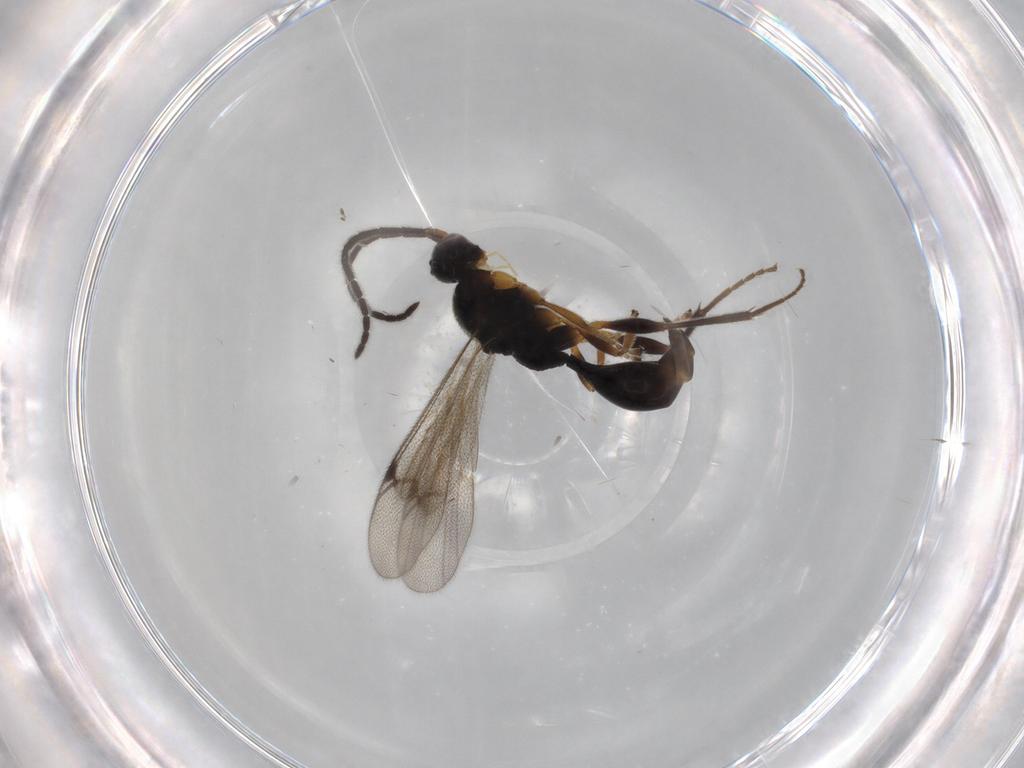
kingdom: Animalia
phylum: Arthropoda
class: Insecta
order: Hymenoptera
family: Proctotrupidae
